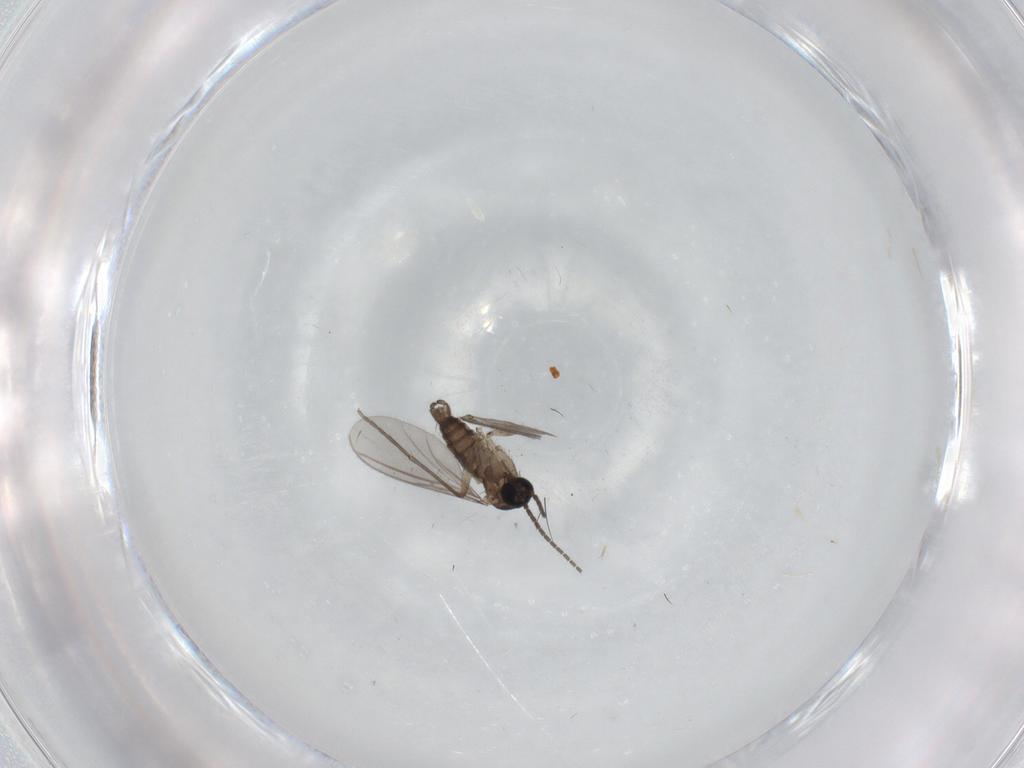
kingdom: Animalia
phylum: Arthropoda
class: Insecta
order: Diptera
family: Sciaridae
